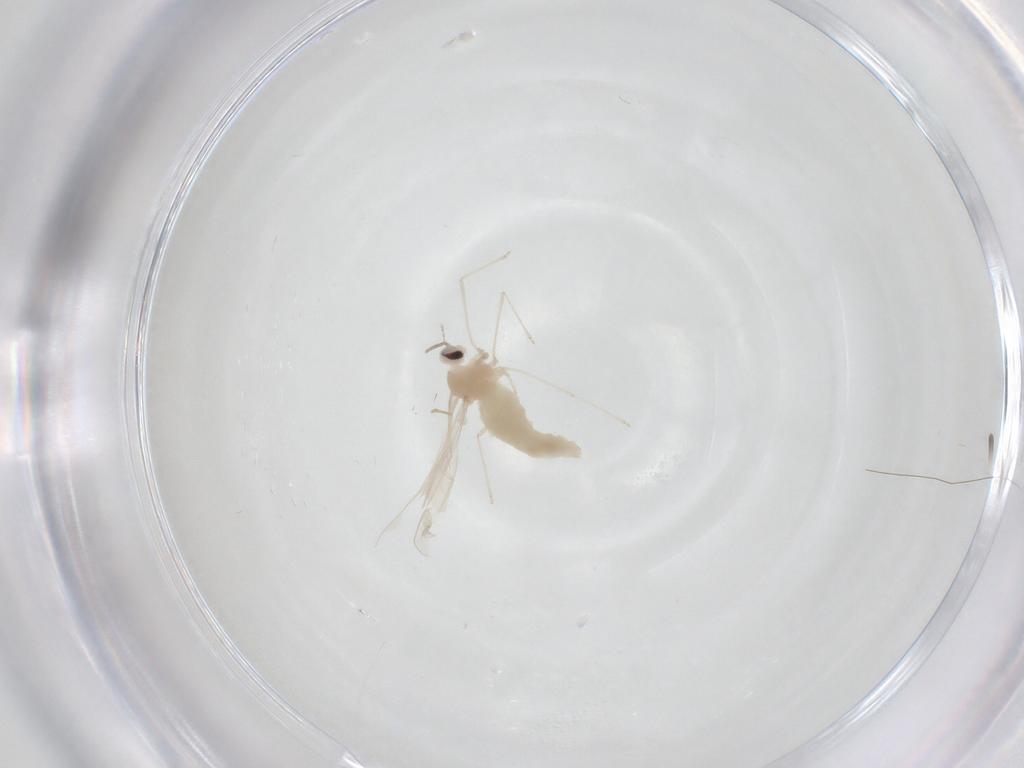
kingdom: Animalia
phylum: Arthropoda
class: Insecta
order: Diptera
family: Cecidomyiidae
